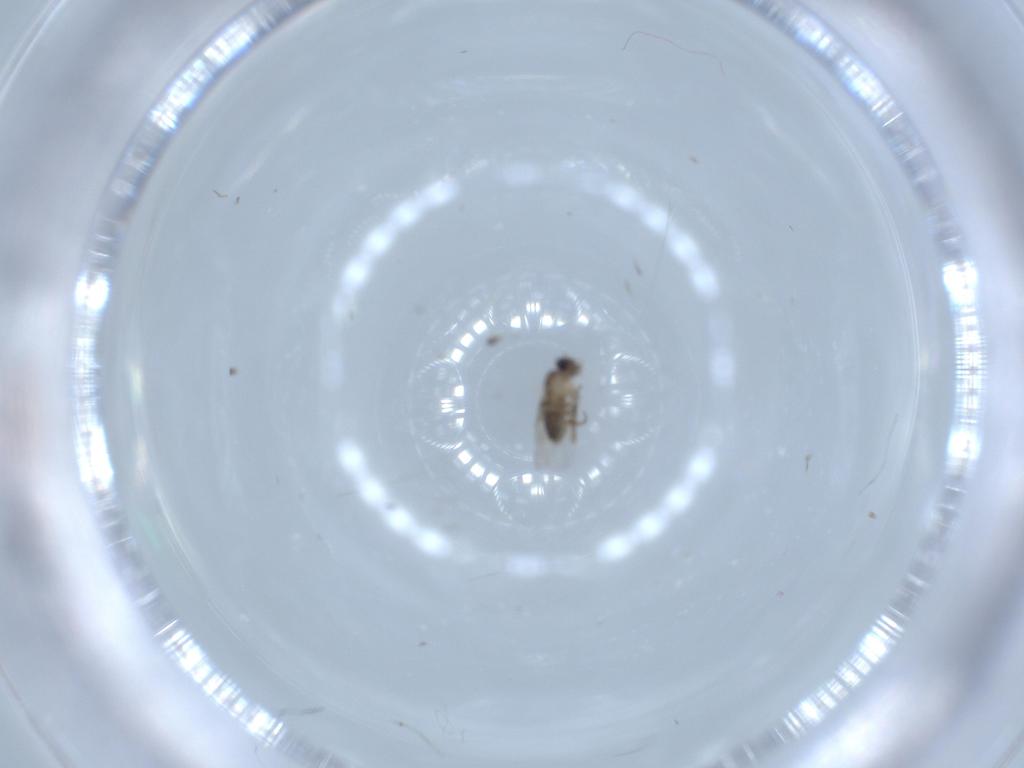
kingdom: Animalia
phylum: Arthropoda
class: Insecta
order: Diptera
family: Phoridae
